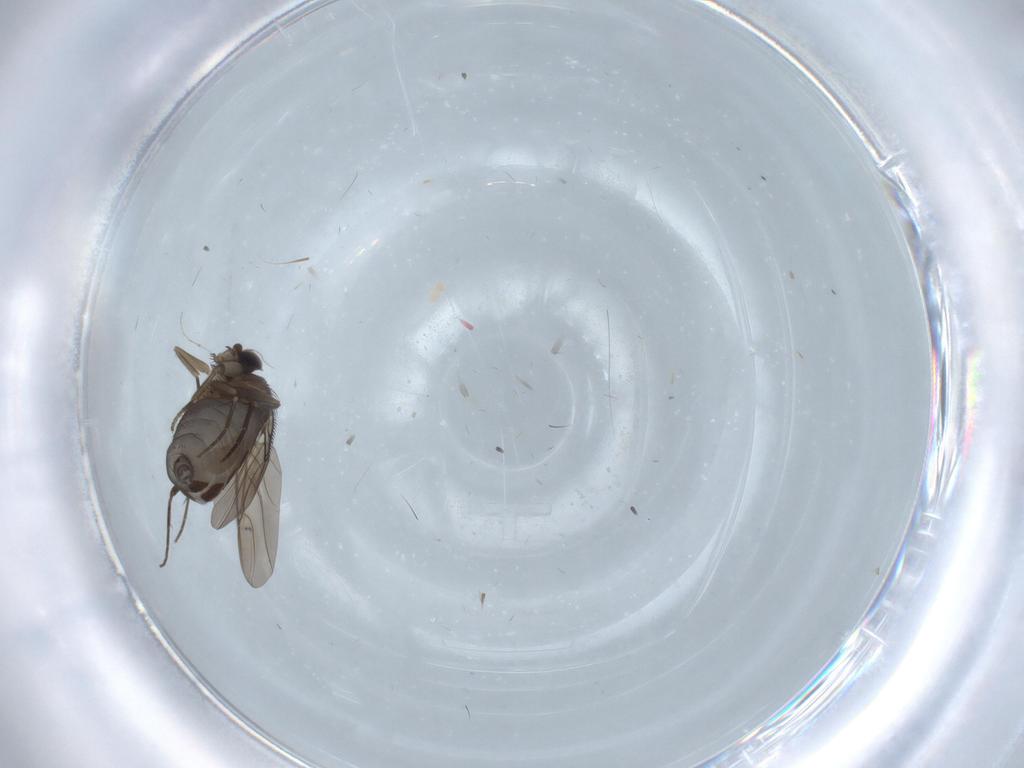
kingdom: Animalia
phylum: Arthropoda
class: Insecta
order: Diptera
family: Phoridae
